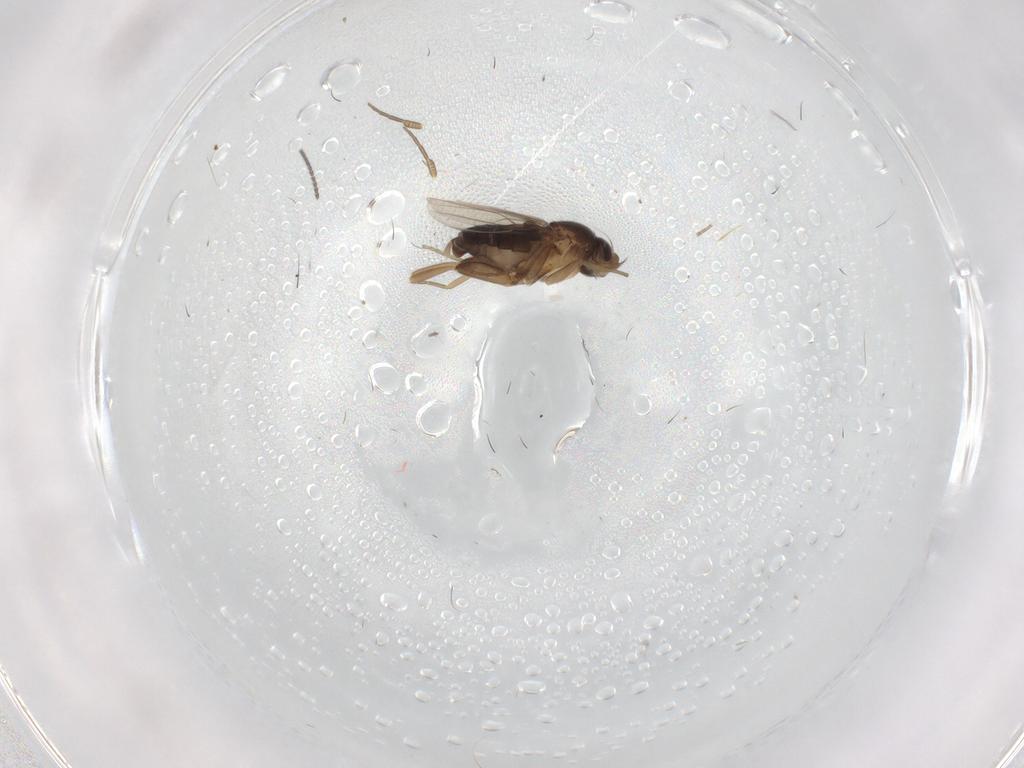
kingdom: Animalia
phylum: Arthropoda
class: Insecta
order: Diptera
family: Phoridae
